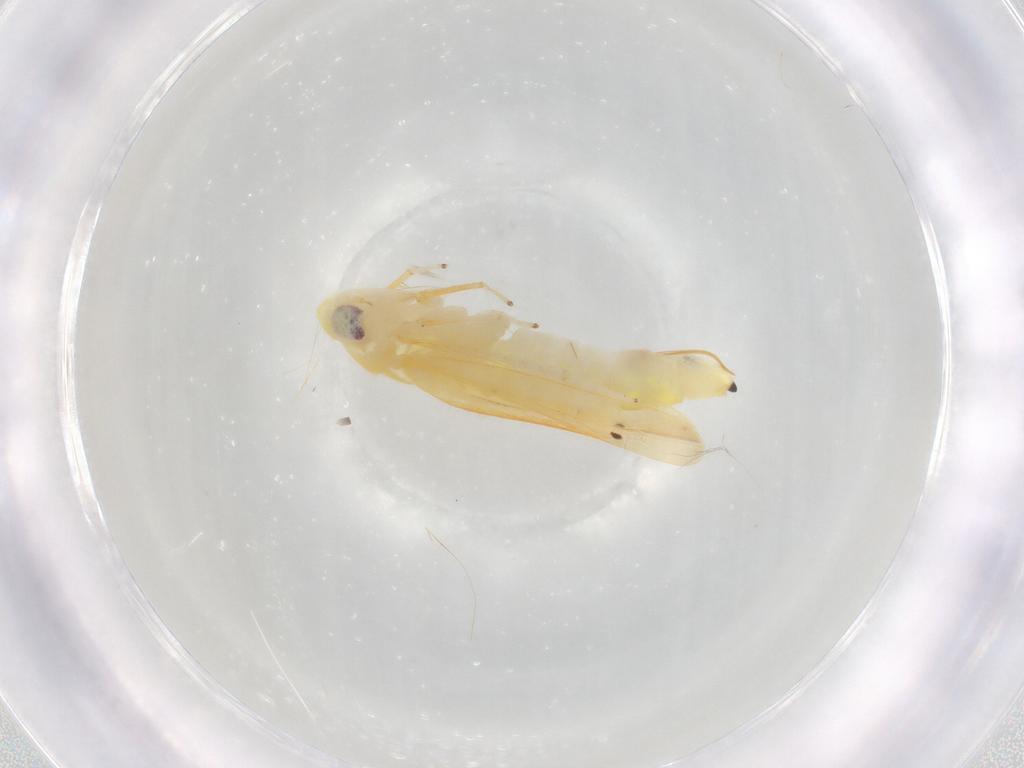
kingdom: Animalia
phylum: Arthropoda
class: Insecta
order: Hemiptera
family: Cicadellidae
